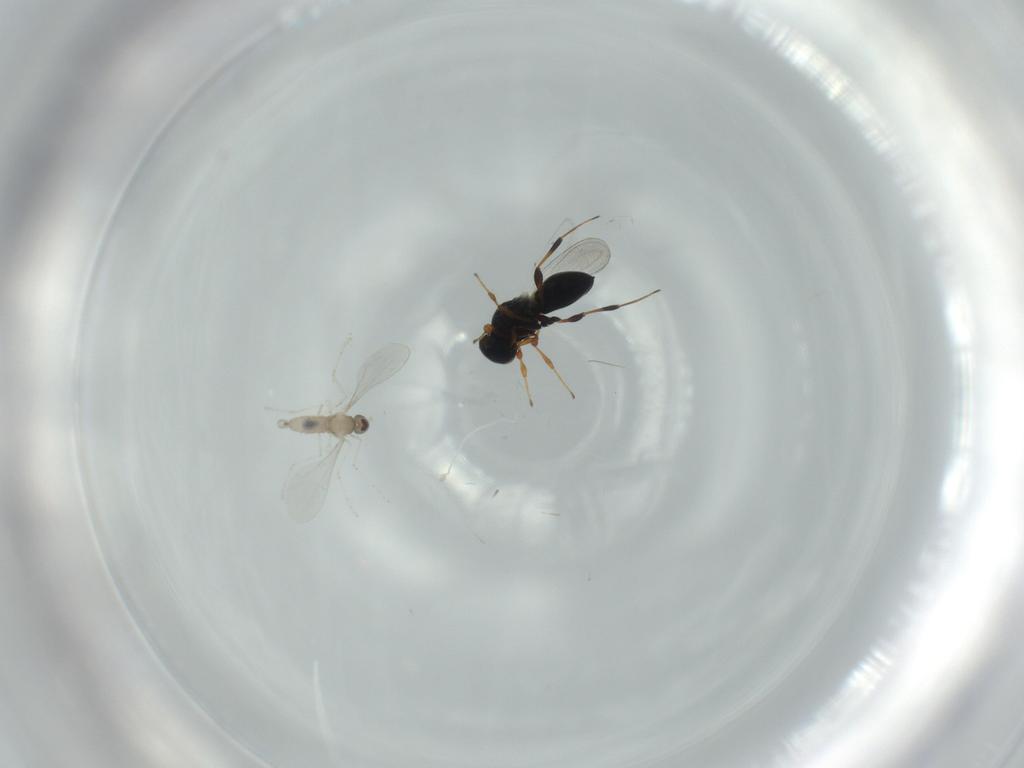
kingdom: Animalia
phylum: Arthropoda
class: Insecta
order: Hymenoptera
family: Platygastridae
